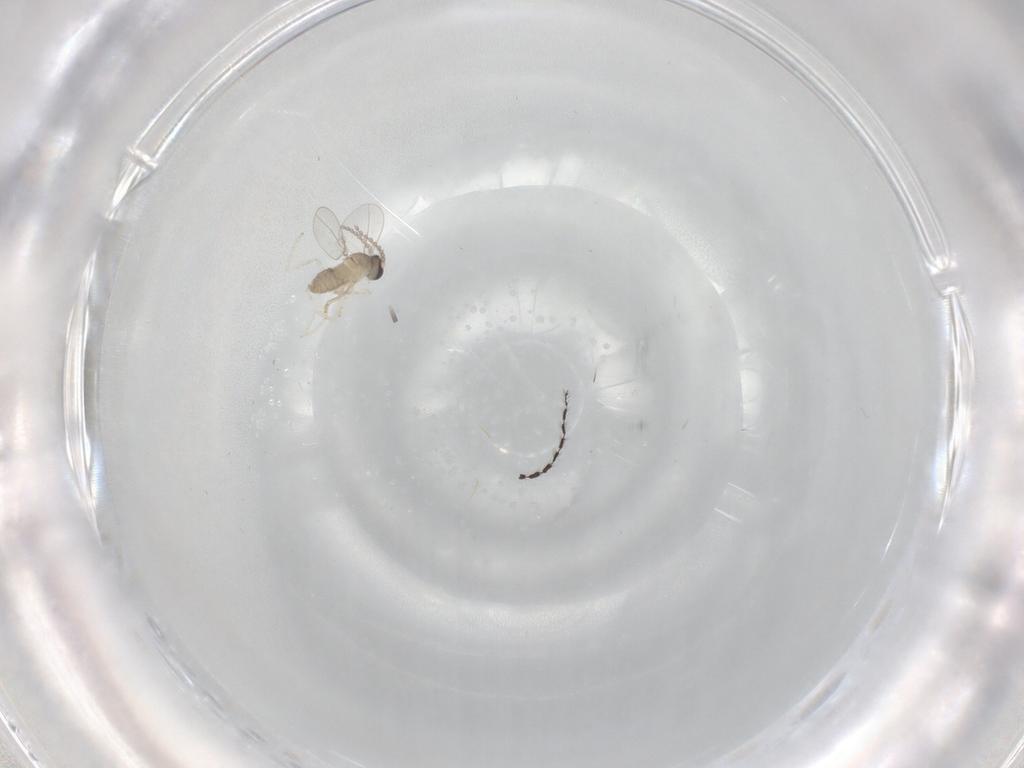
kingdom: Animalia
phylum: Arthropoda
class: Insecta
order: Diptera
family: Cecidomyiidae
